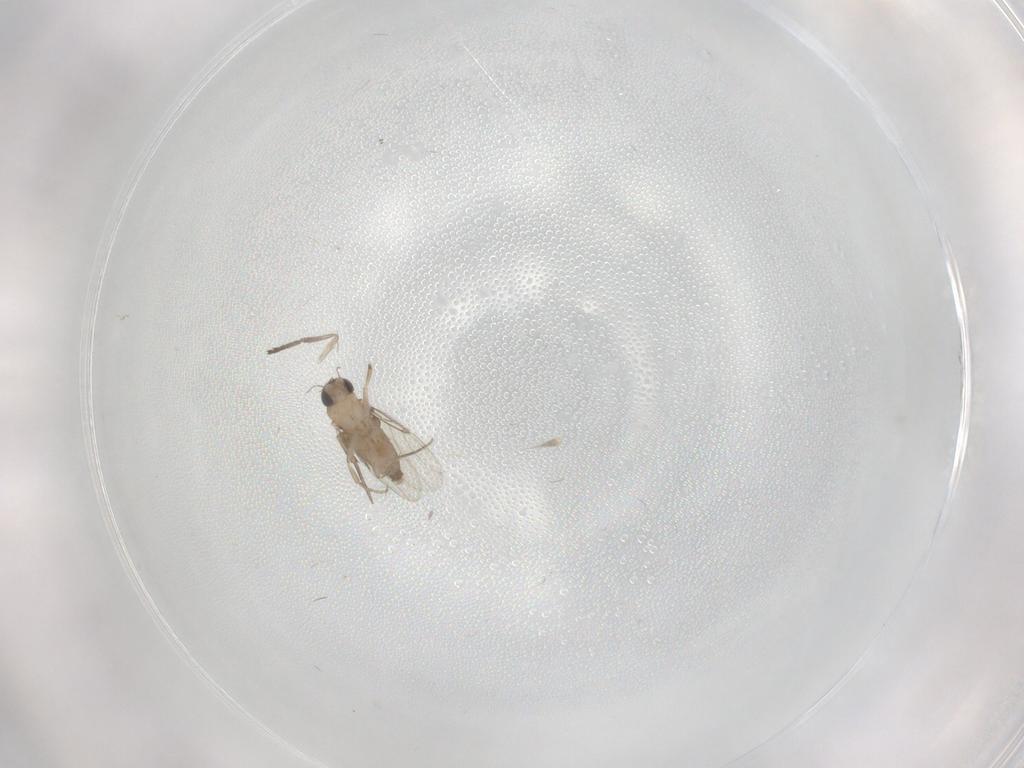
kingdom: Animalia
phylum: Arthropoda
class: Insecta
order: Diptera
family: Phoridae
